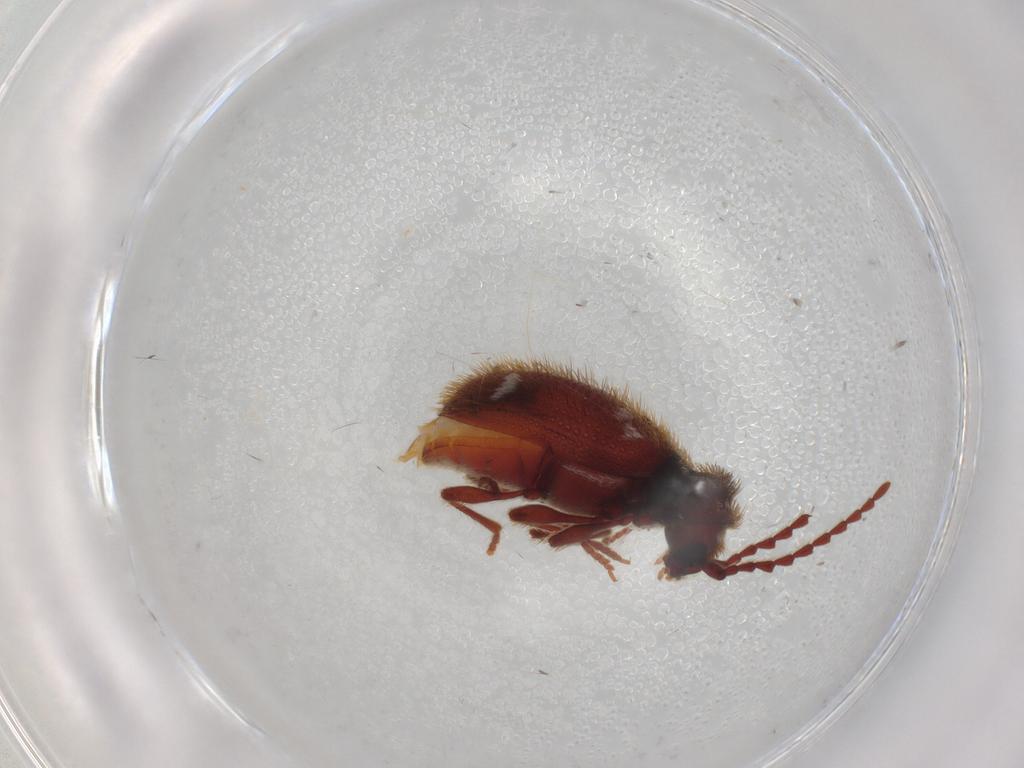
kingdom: Animalia
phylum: Arthropoda
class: Insecta
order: Coleoptera
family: Ptinidae
